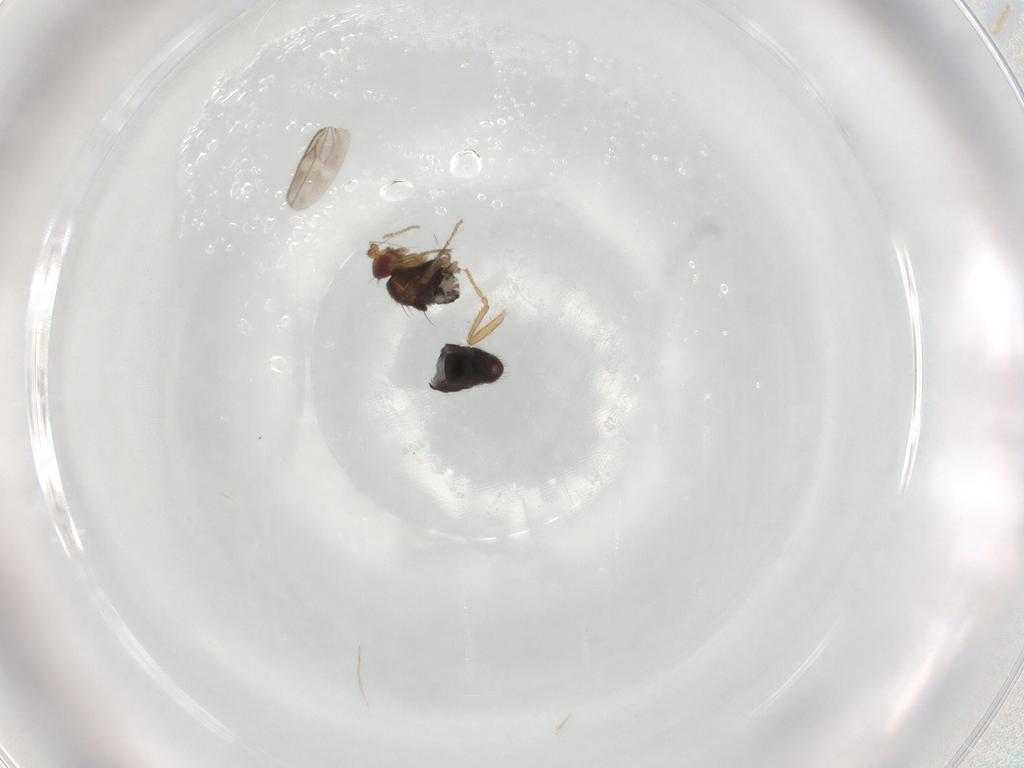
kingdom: Animalia
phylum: Arthropoda
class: Insecta
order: Diptera
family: Sphaeroceridae
